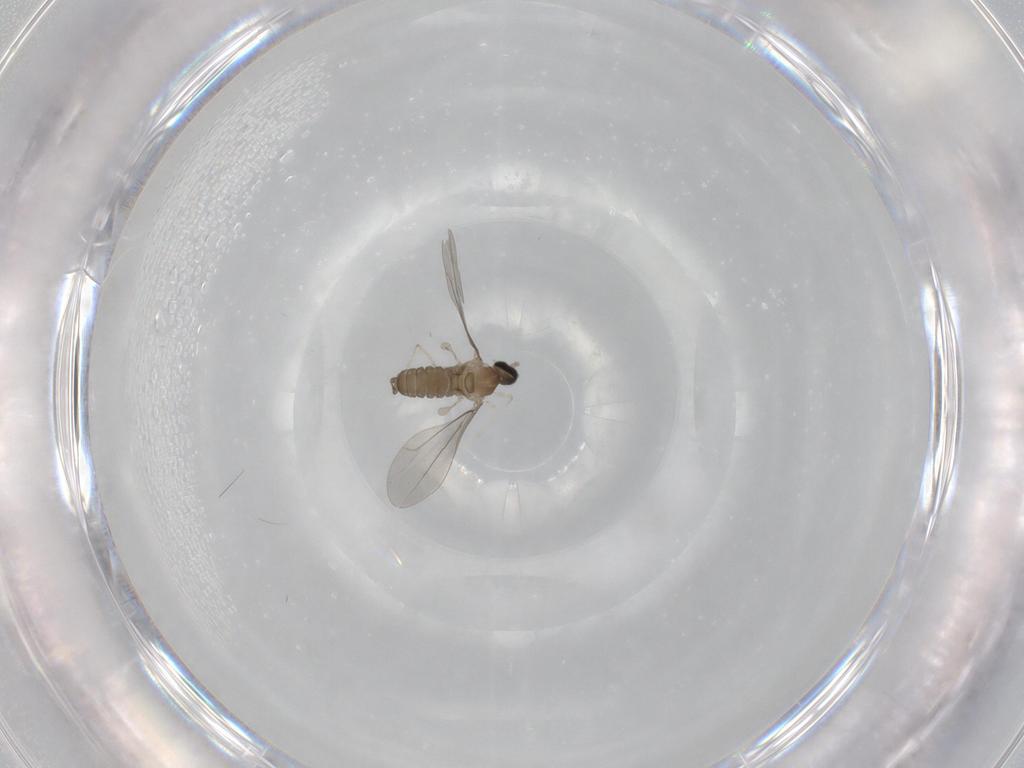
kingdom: Animalia
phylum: Arthropoda
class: Insecta
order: Diptera
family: Cecidomyiidae
